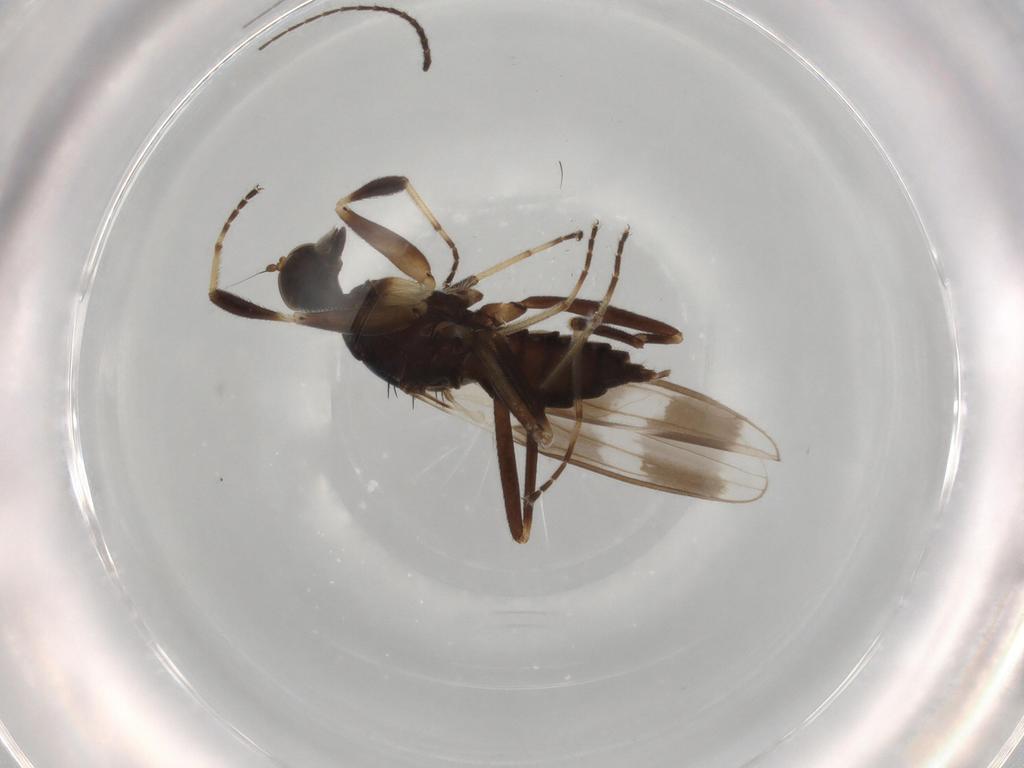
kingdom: Animalia
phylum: Arthropoda
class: Insecta
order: Diptera
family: Hybotidae
